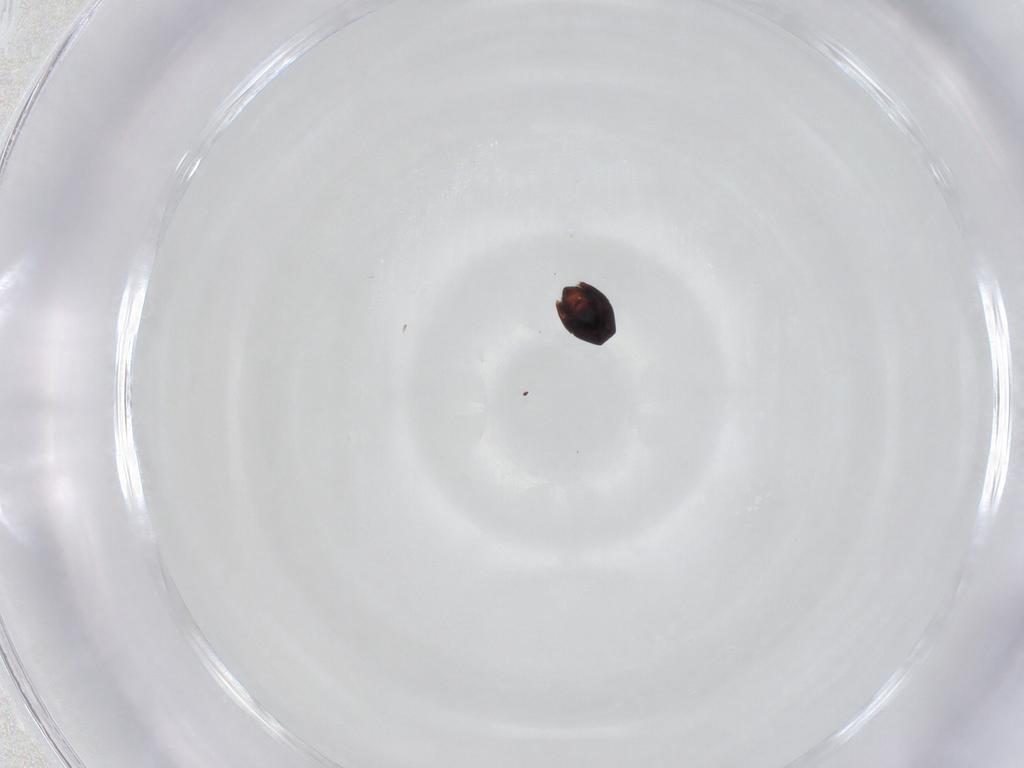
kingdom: Animalia
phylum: Arthropoda
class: Arachnida
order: Sarcoptiformes
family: Galumnidae
